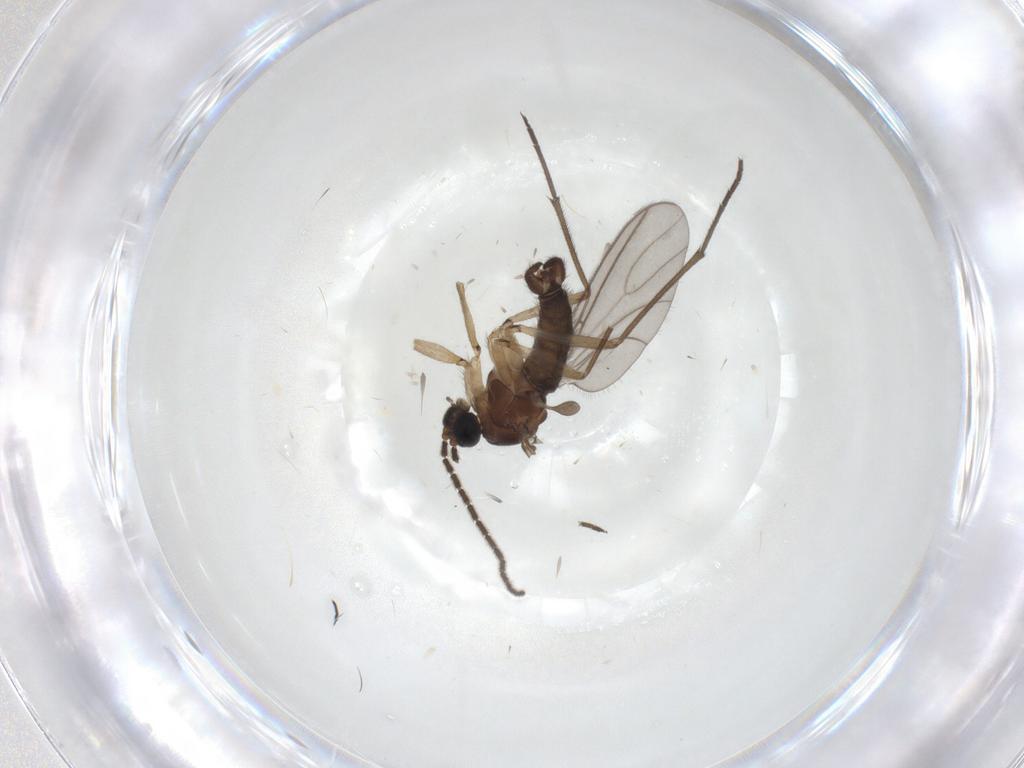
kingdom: Animalia
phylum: Arthropoda
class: Insecta
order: Diptera
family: Sciaridae
